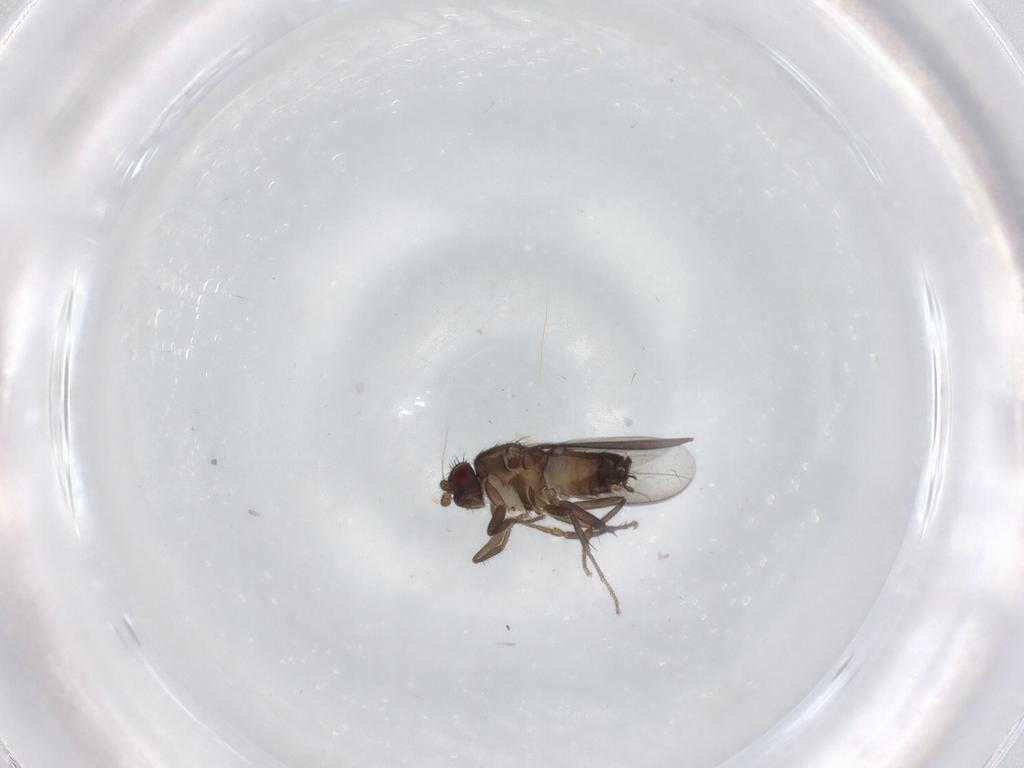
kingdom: Animalia
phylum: Arthropoda
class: Insecta
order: Diptera
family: Sphaeroceridae
